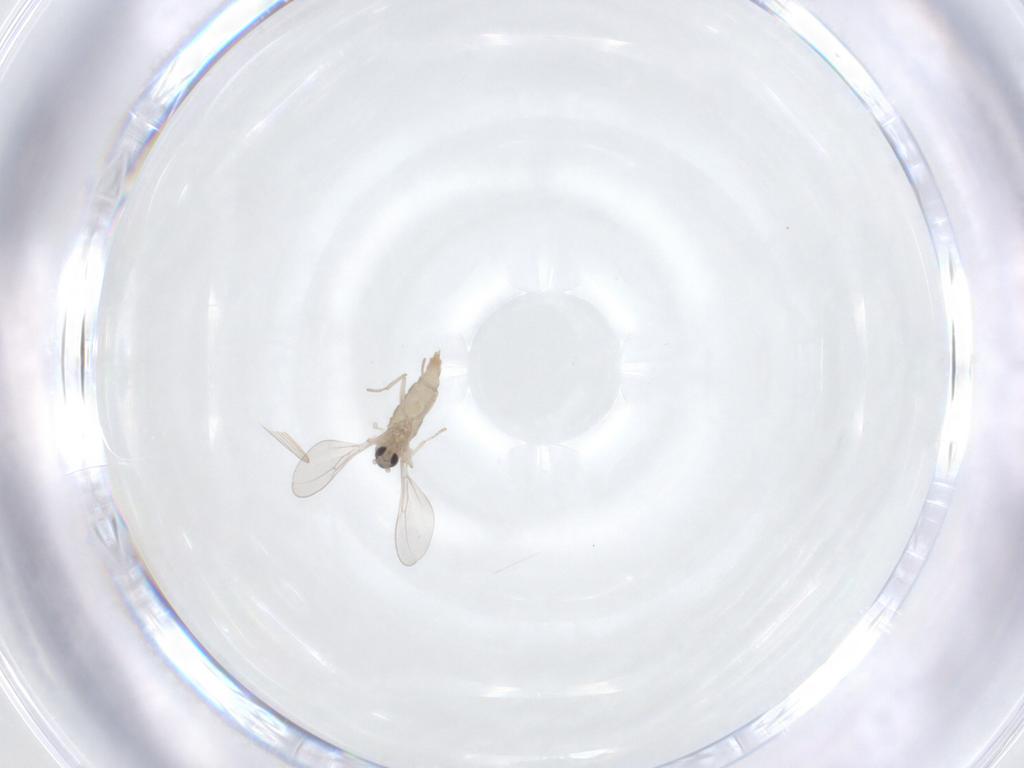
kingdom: Animalia
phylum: Arthropoda
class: Insecta
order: Diptera
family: Cecidomyiidae
